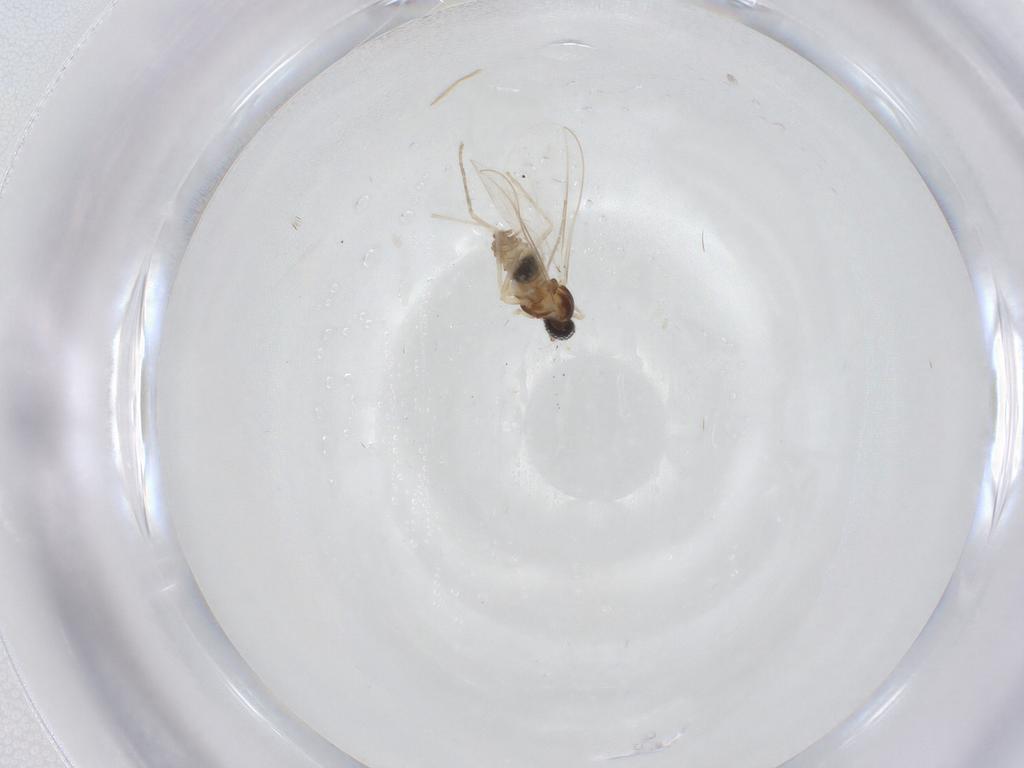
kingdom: Animalia
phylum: Arthropoda
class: Insecta
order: Diptera
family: Cecidomyiidae
